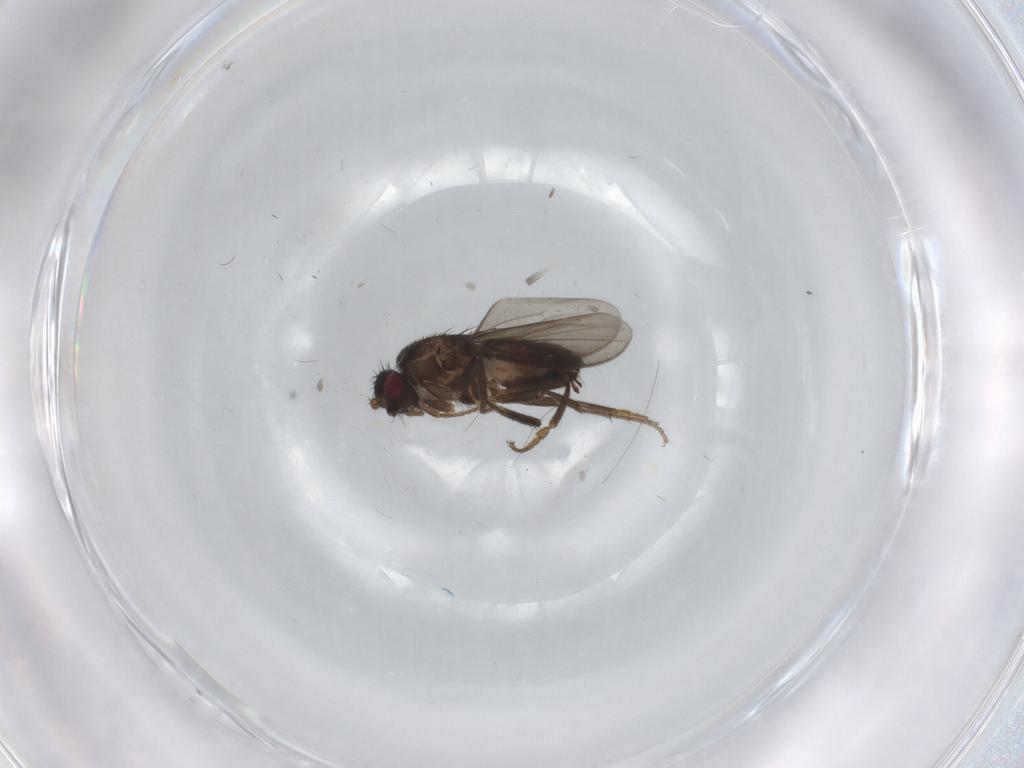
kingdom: Animalia
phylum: Arthropoda
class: Insecta
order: Diptera
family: Sphaeroceridae
